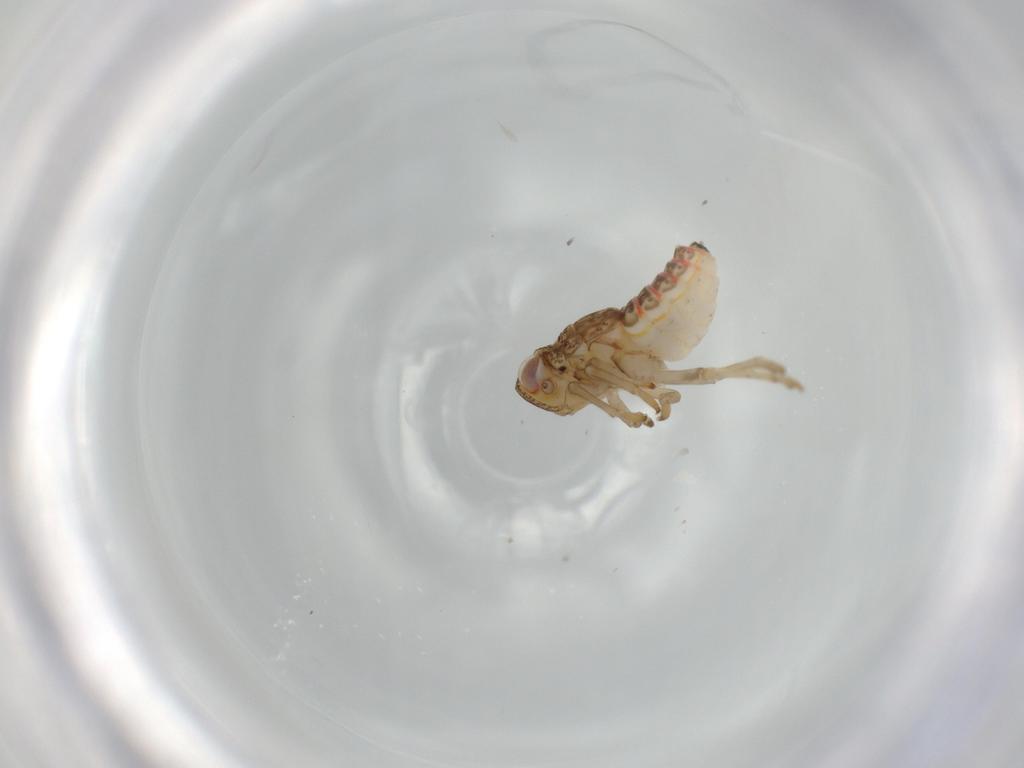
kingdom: Animalia
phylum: Arthropoda
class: Insecta
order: Hemiptera
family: Issidae
